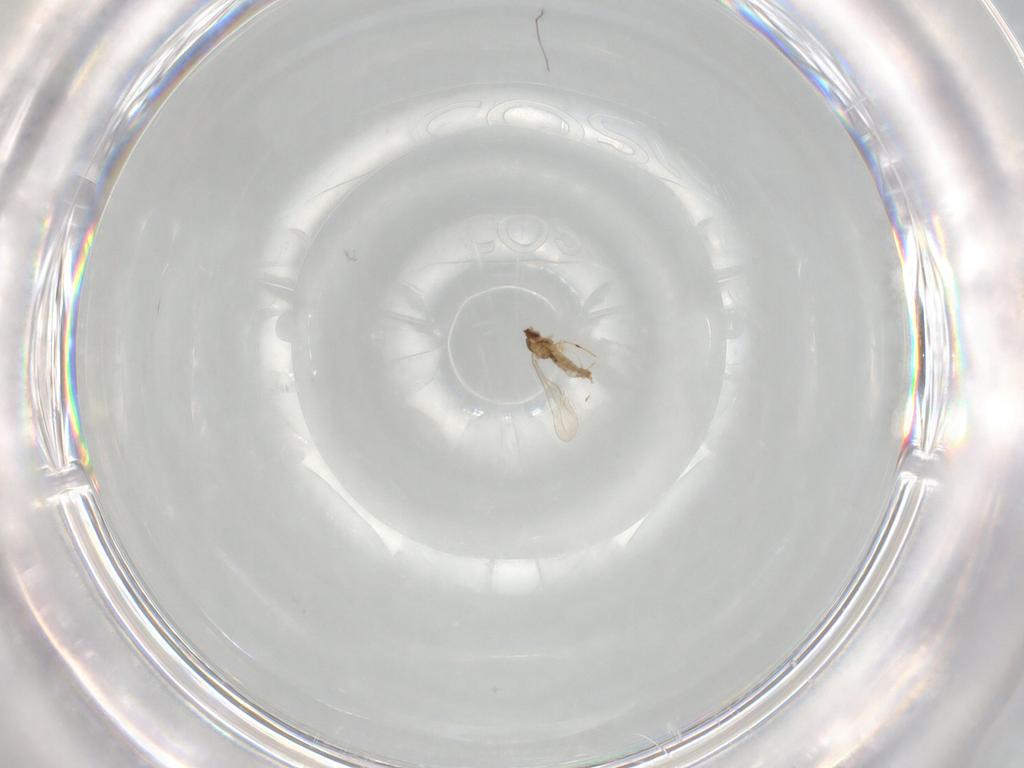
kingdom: Animalia
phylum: Arthropoda
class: Insecta
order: Diptera
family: Cecidomyiidae
